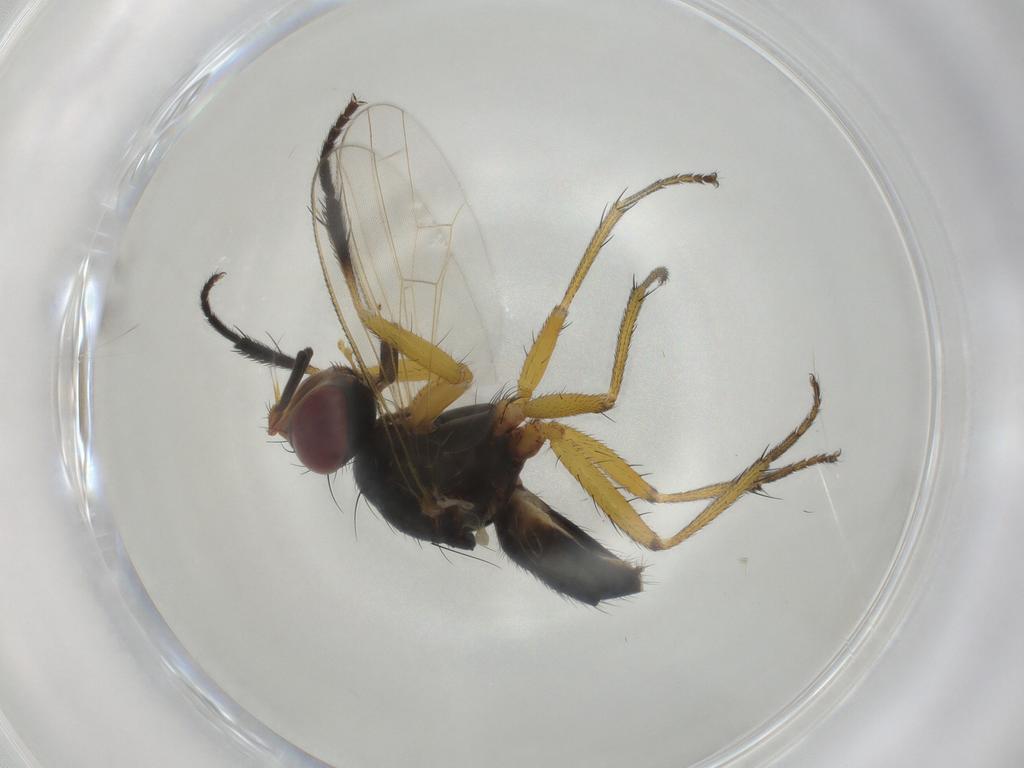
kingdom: Animalia
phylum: Arthropoda
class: Insecta
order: Diptera
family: Muscidae
